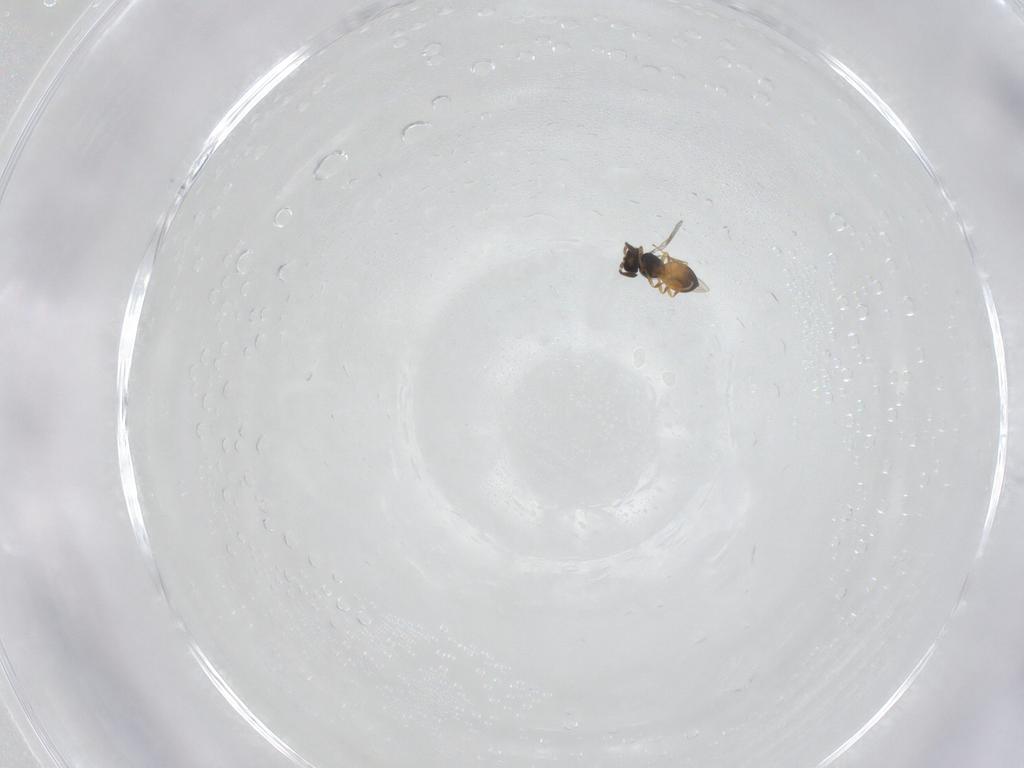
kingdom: Animalia
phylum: Arthropoda
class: Insecta
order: Hymenoptera
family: Scelionidae
